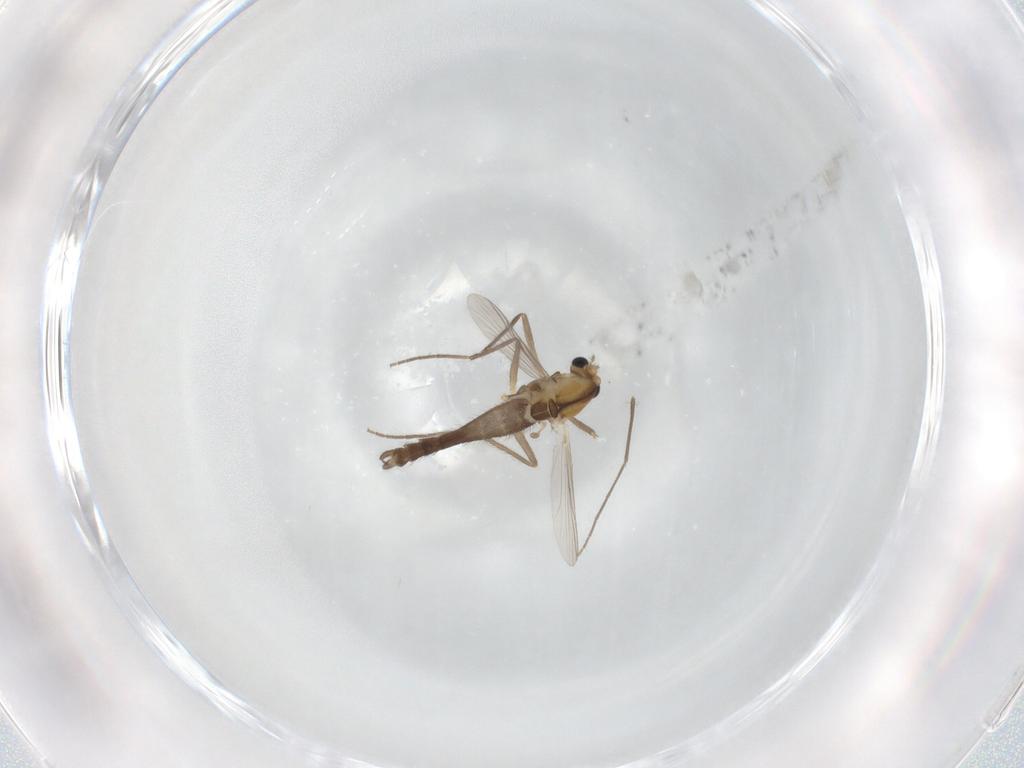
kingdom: Animalia
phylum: Arthropoda
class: Insecta
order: Diptera
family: Chironomidae
